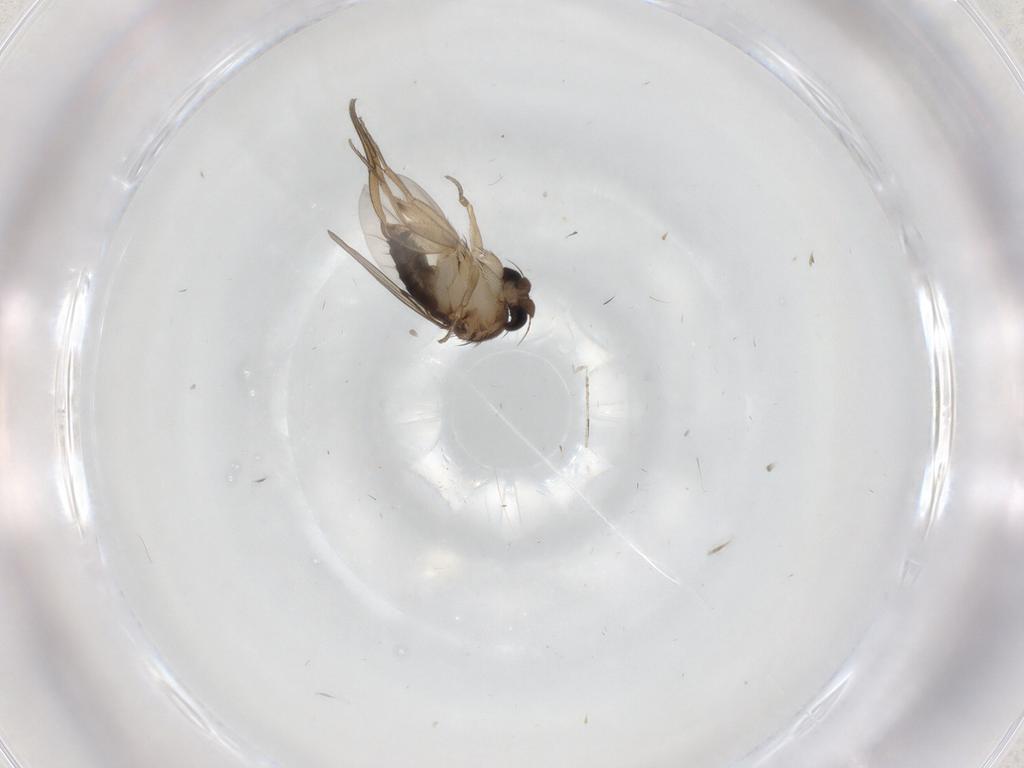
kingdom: Animalia
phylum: Arthropoda
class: Insecta
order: Diptera
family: Phoridae
